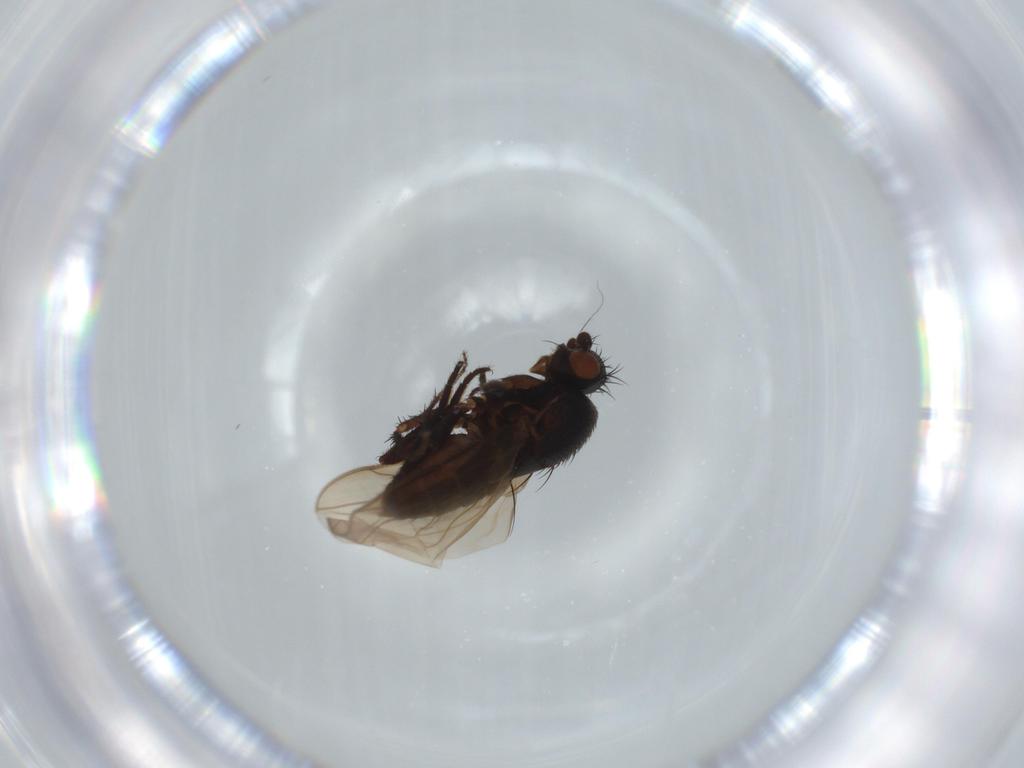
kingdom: Animalia
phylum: Arthropoda
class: Insecta
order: Diptera
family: Sphaeroceridae
